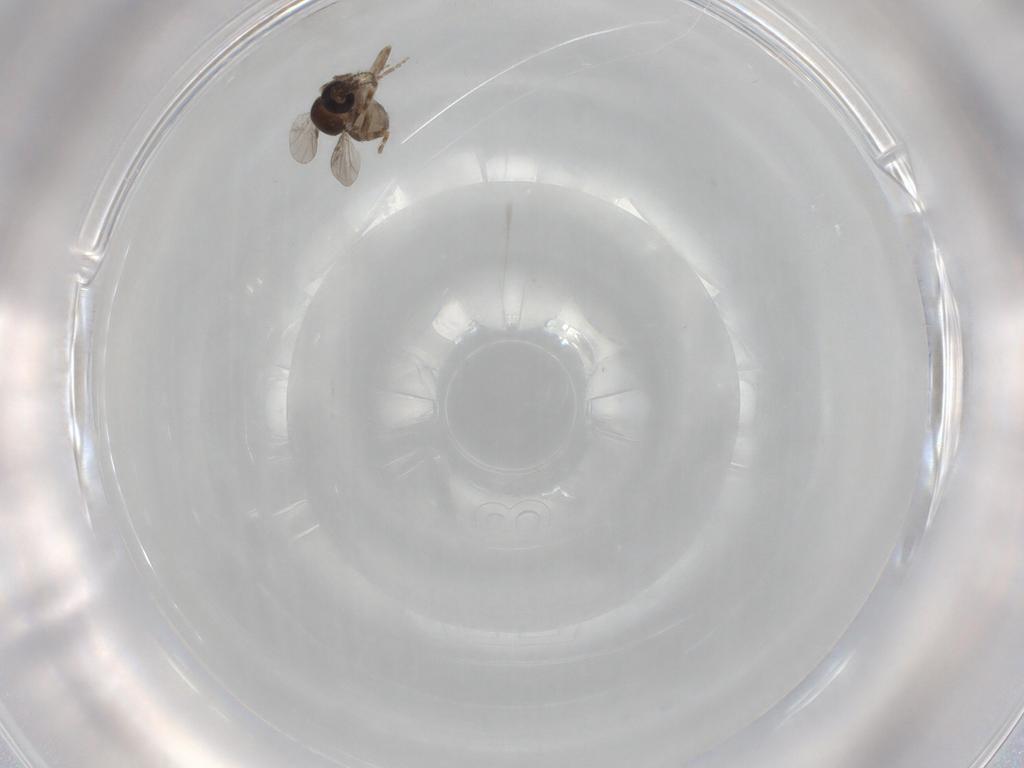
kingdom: Animalia
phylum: Arthropoda
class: Insecta
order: Diptera
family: Ceratopogonidae
